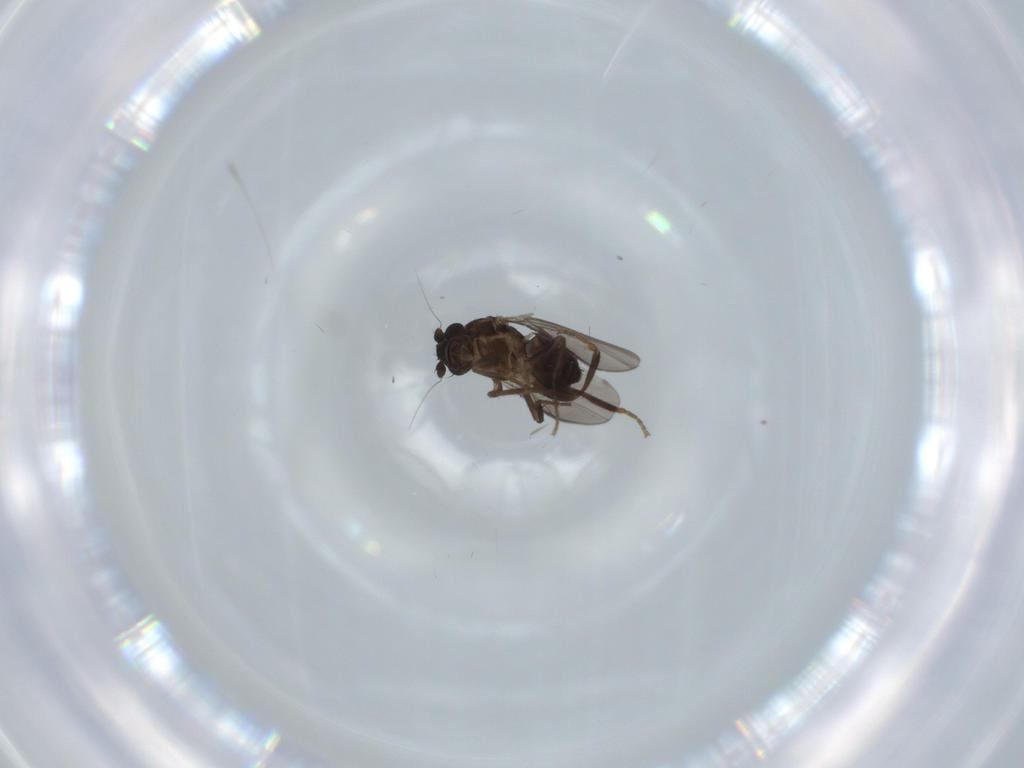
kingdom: Animalia
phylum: Arthropoda
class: Insecta
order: Diptera
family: Sphaeroceridae
